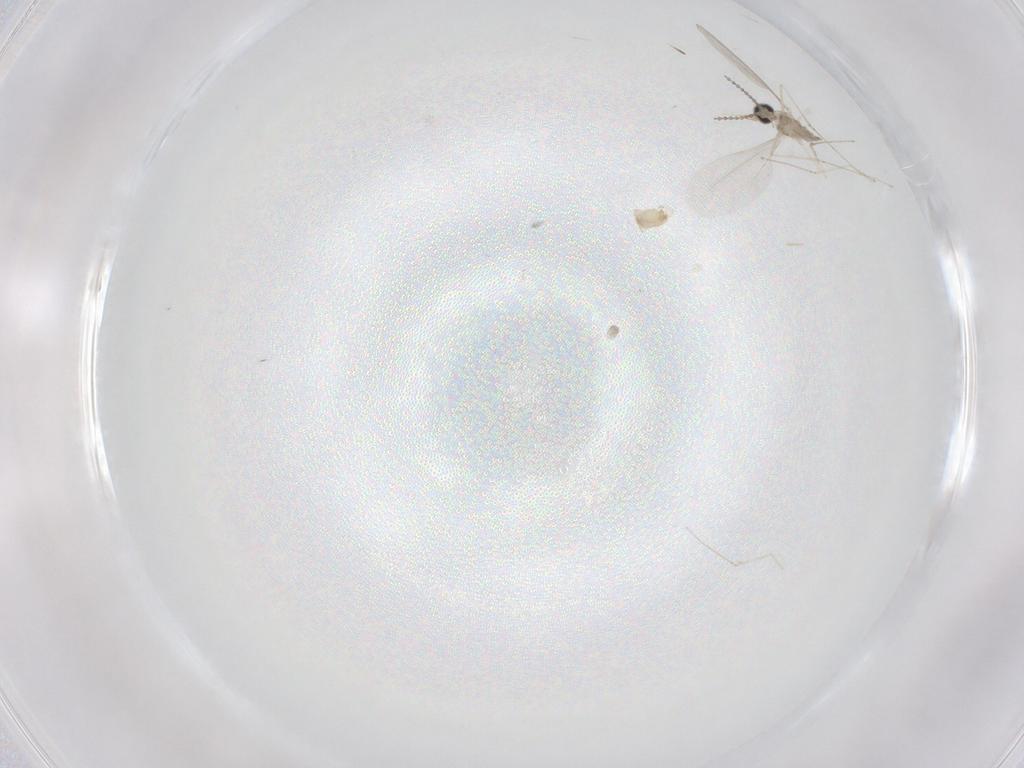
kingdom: Animalia
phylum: Arthropoda
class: Insecta
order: Diptera
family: Cecidomyiidae
